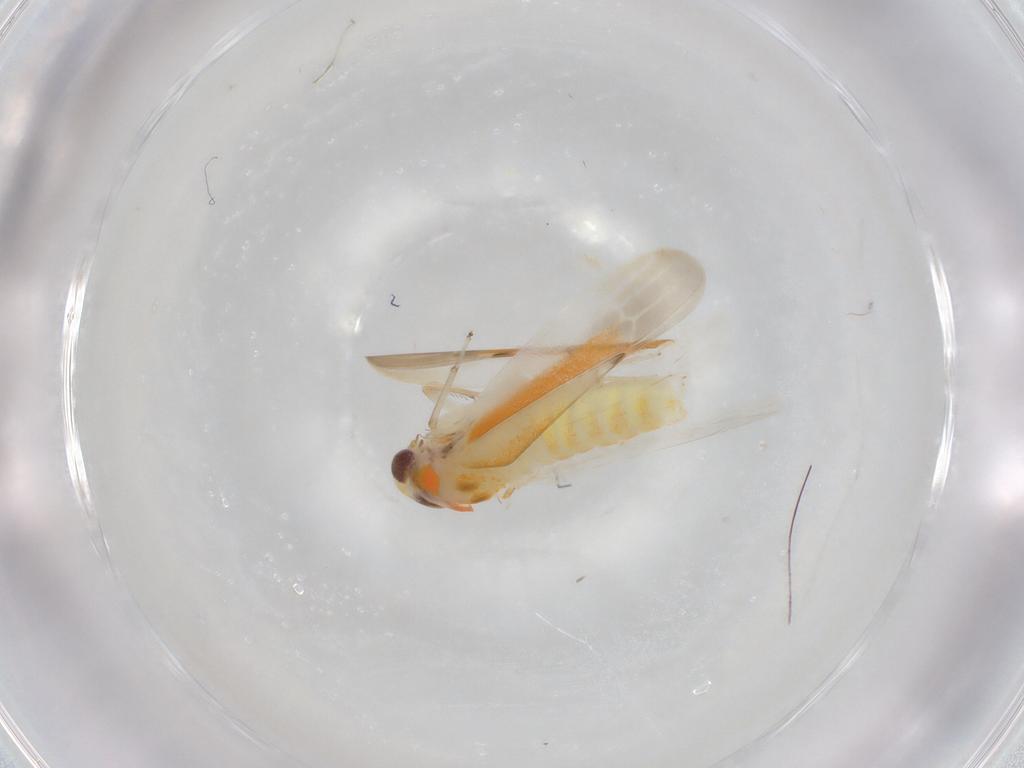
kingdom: Animalia
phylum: Arthropoda
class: Insecta
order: Hemiptera
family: Cicadellidae
